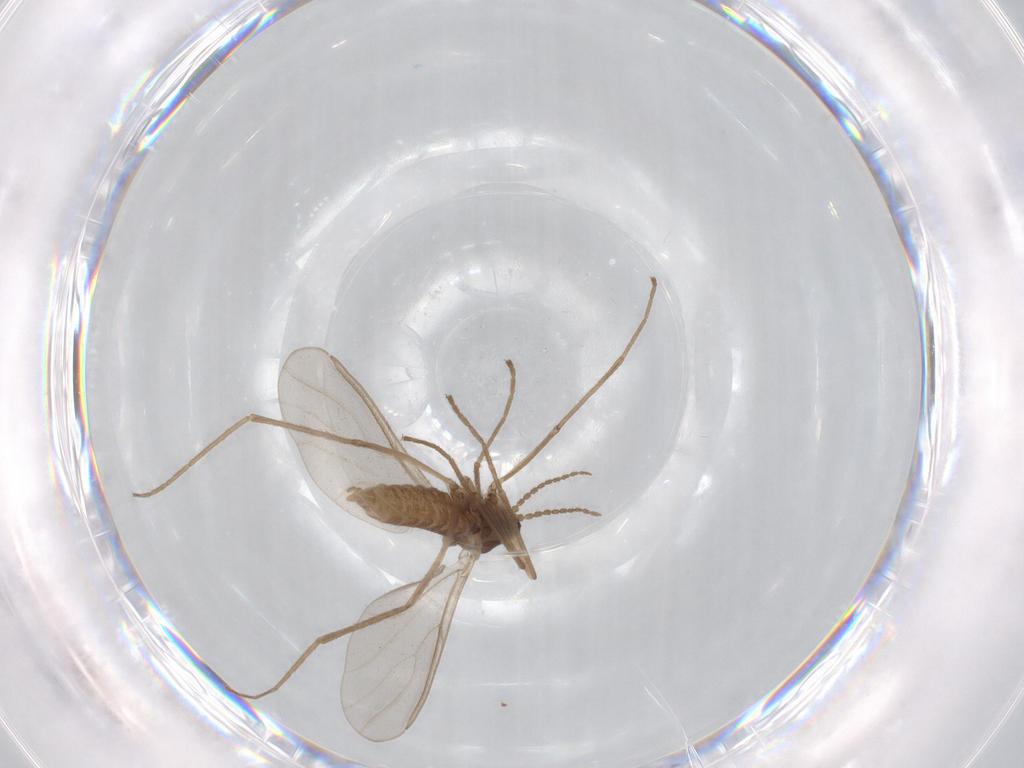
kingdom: Animalia
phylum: Arthropoda
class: Insecta
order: Diptera
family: Cecidomyiidae
